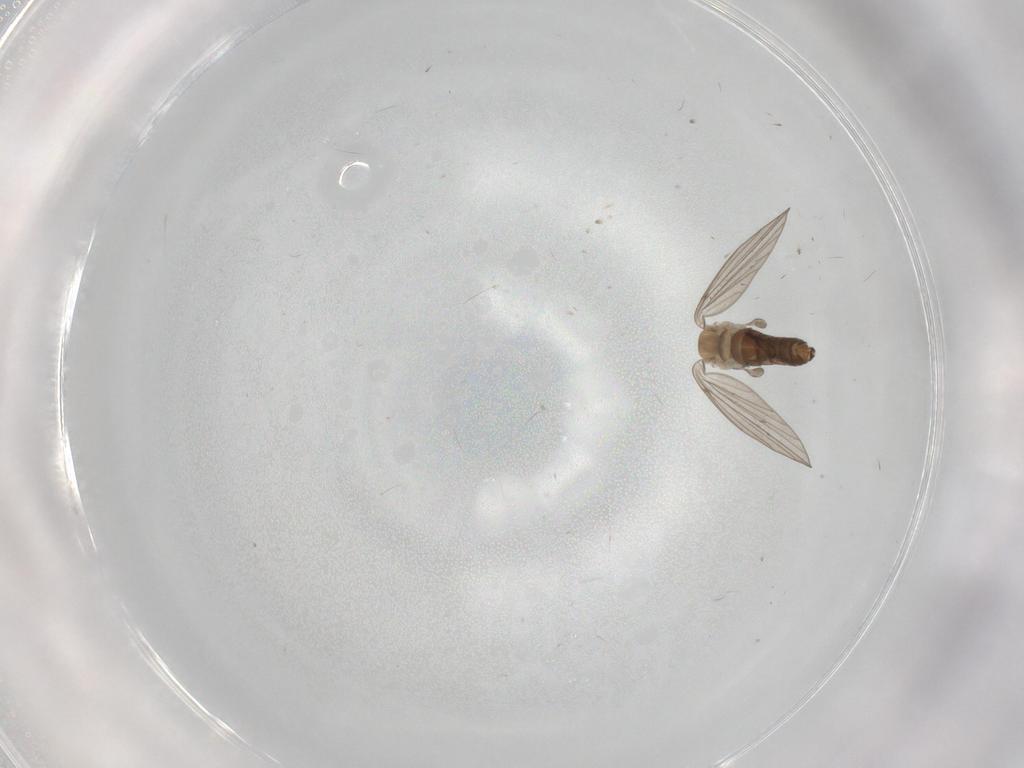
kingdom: Animalia
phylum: Arthropoda
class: Insecta
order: Diptera
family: Psychodidae
